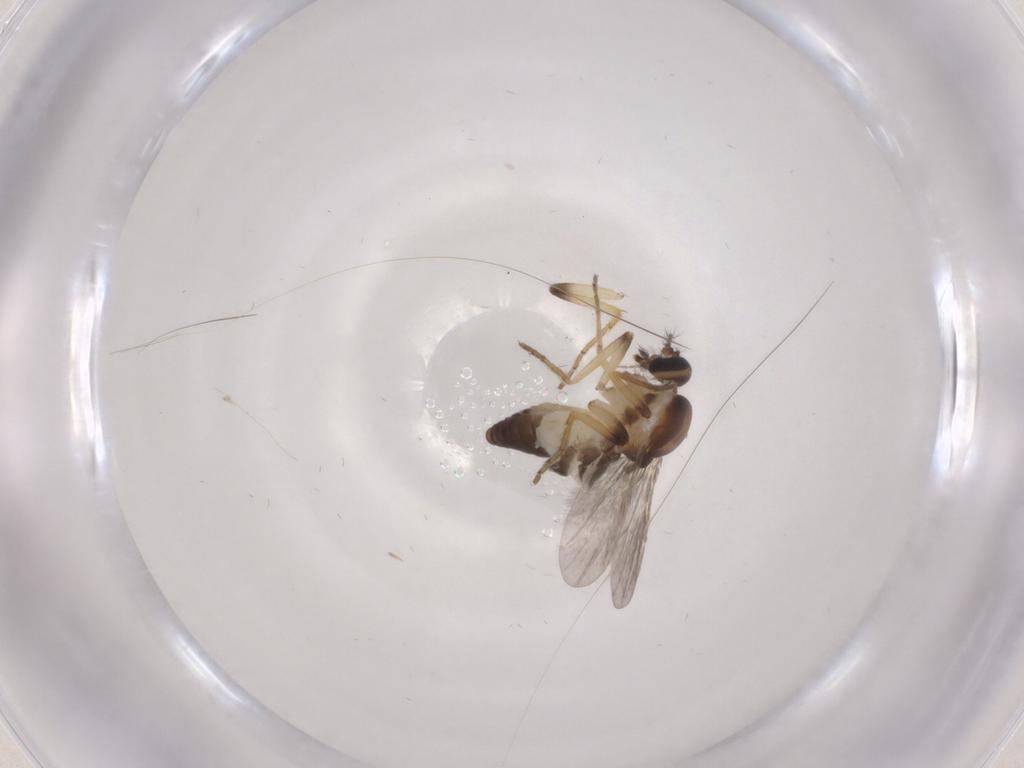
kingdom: Animalia
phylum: Arthropoda
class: Insecta
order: Diptera
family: Ceratopogonidae
